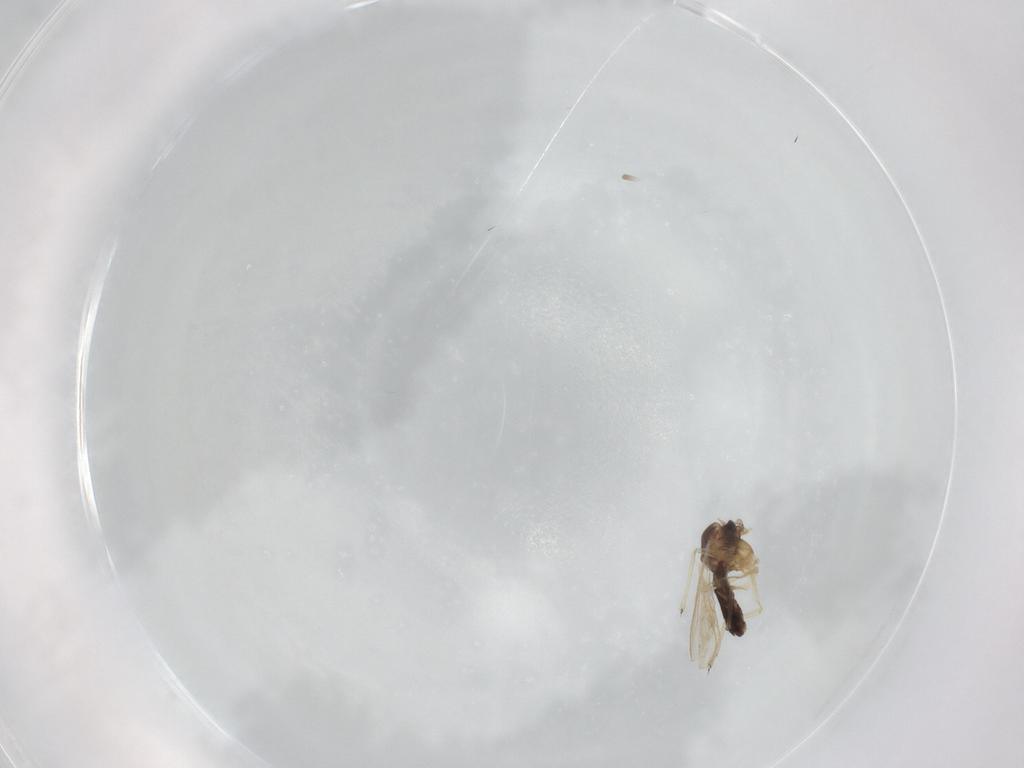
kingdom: Animalia
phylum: Arthropoda
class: Insecta
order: Diptera
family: Chironomidae
